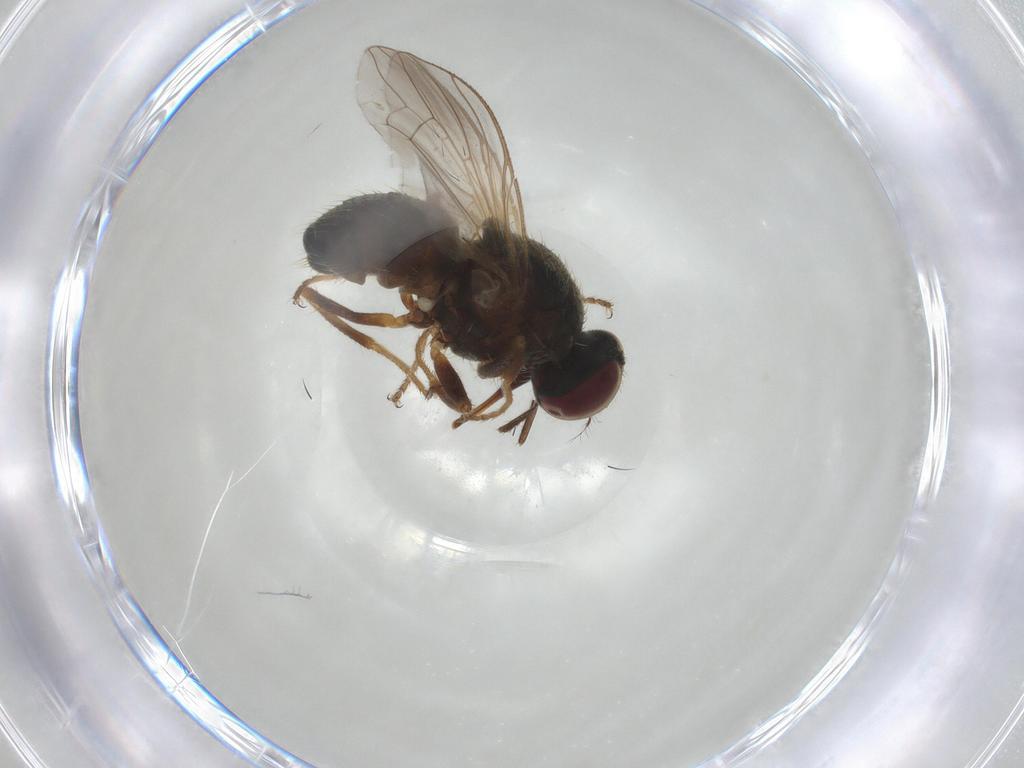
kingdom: Animalia
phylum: Arthropoda
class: Insecta
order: Diptera
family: Muscidae
